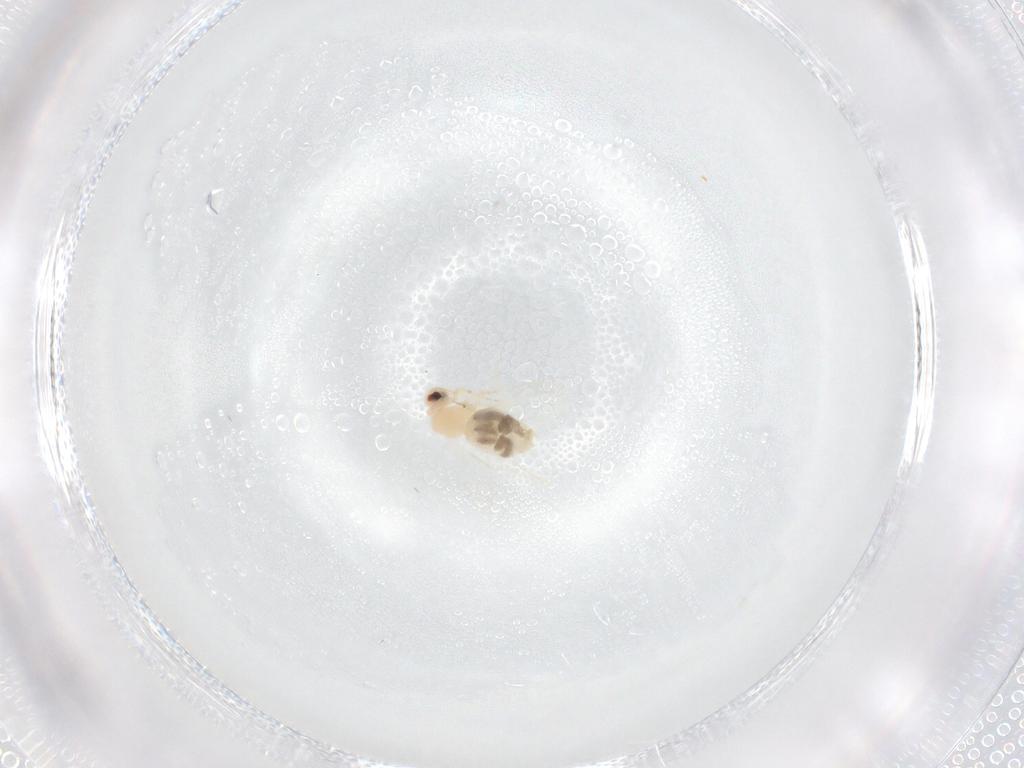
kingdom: Animalia
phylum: Arthropoda
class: Insecta
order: Hemiptera
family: Aleyrodidae
